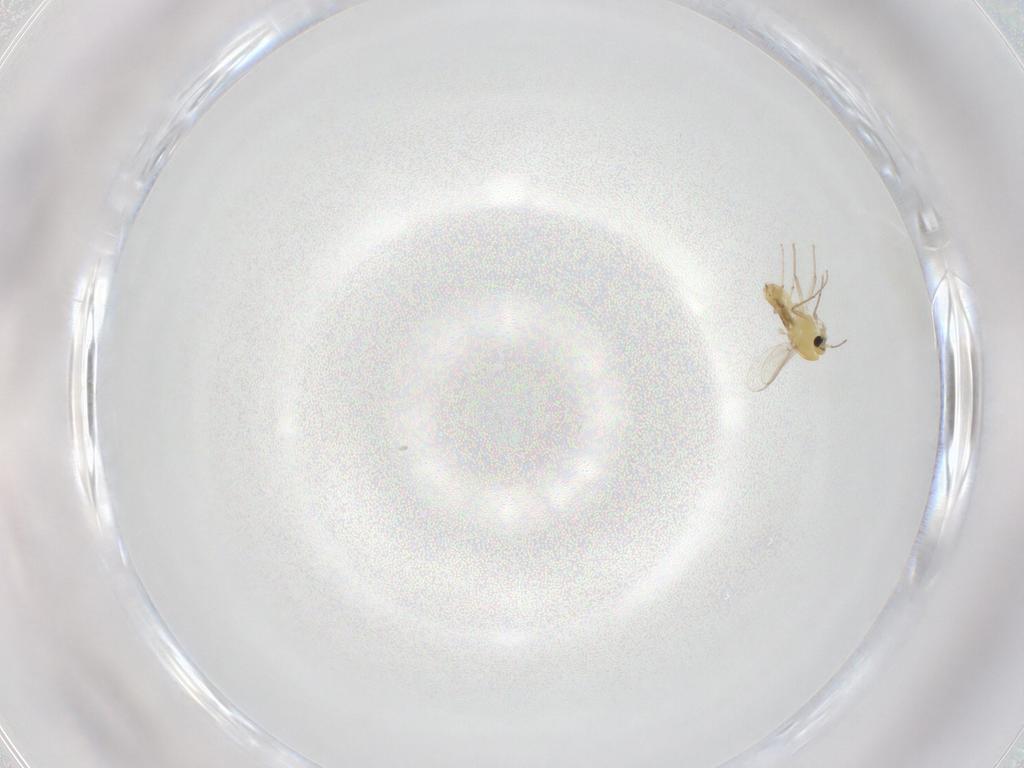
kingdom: Animalia
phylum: Arthropoda
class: Insecta
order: Diptera
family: Chironomidae
